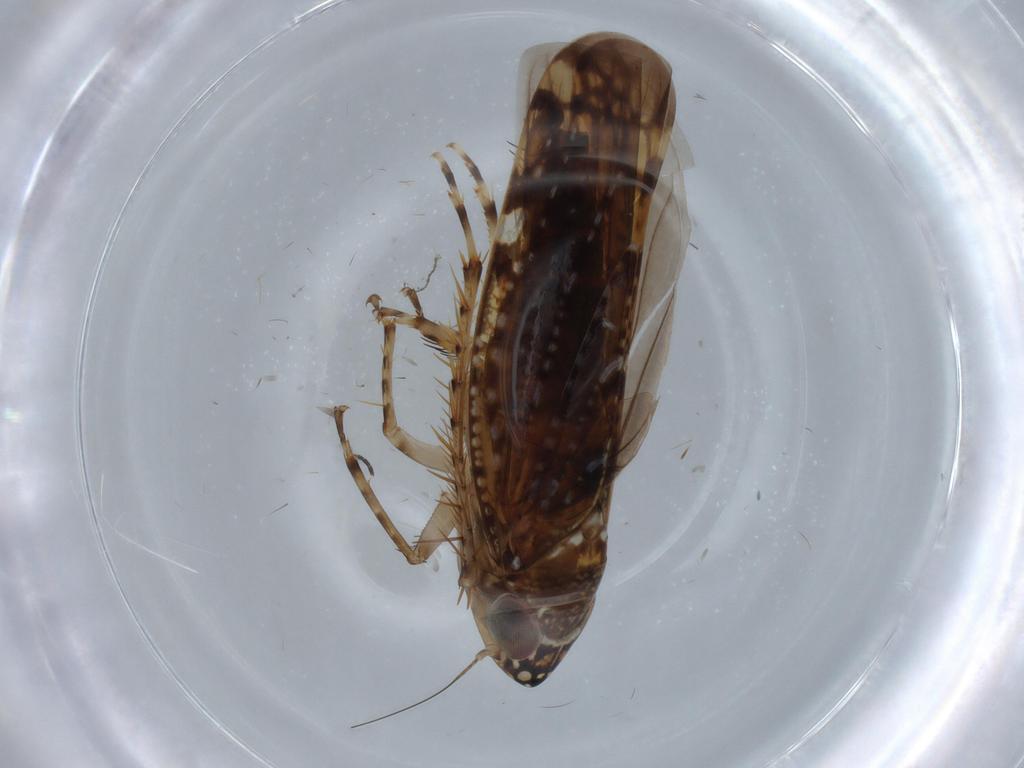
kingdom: Animalia
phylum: Arthropoda
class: Insecta
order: Hemiptera
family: Cicadellidae
